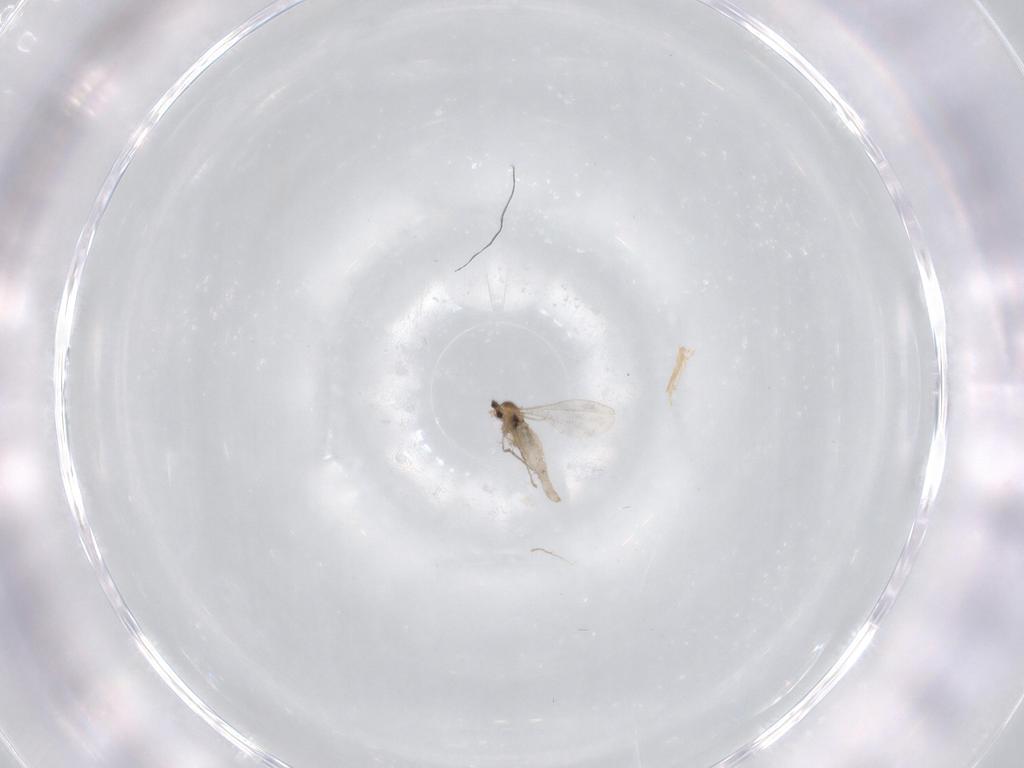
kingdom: Animalia
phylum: Arthropoda
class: Insecta
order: Diptera
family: Cecidomyiidae
